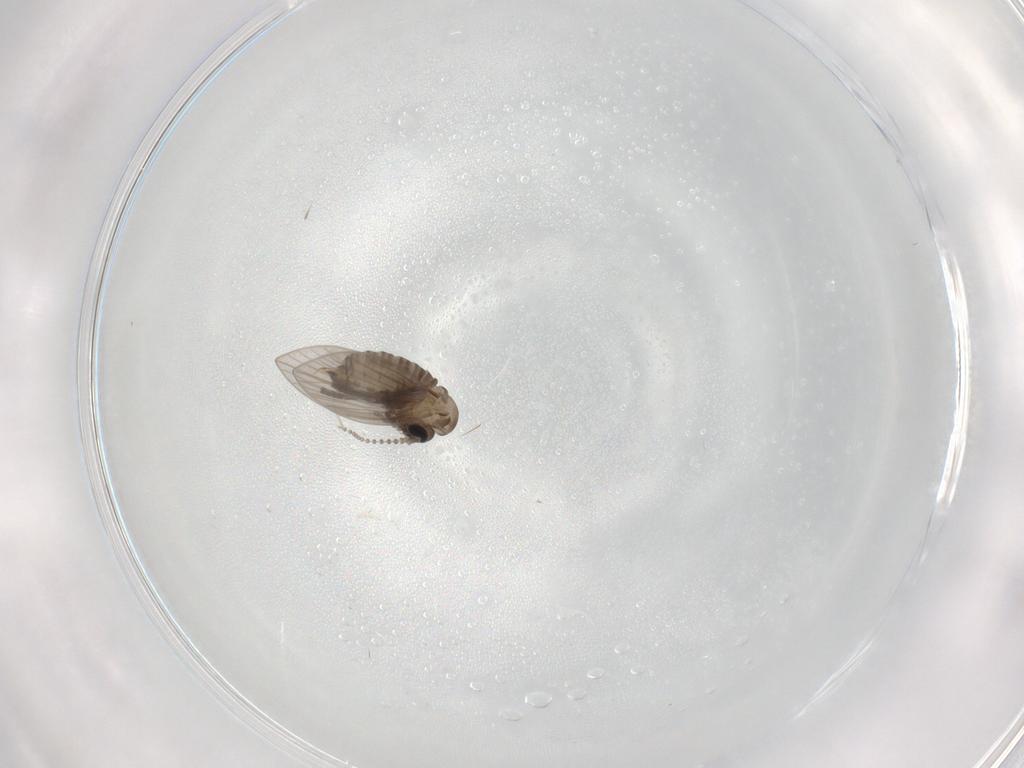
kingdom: Animalia
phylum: Arthropoda
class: Insecta
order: Diptera
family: Psychodidae
